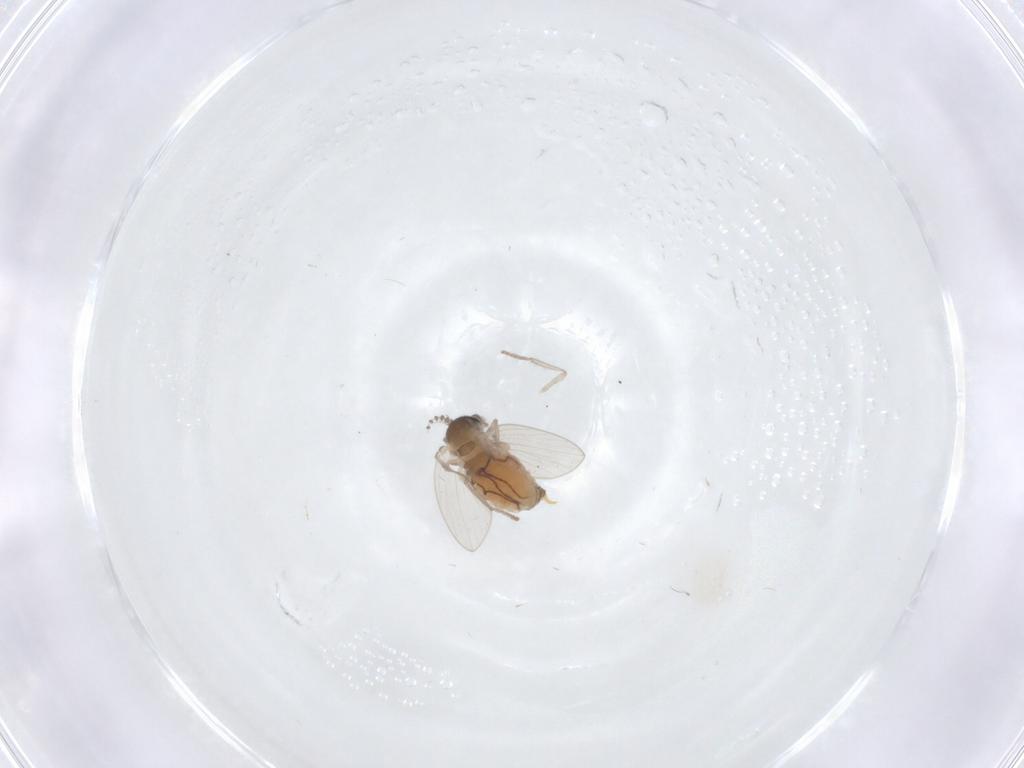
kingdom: Animalia
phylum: Arthropoda
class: Insecta
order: Diptera
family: Psychodidae
